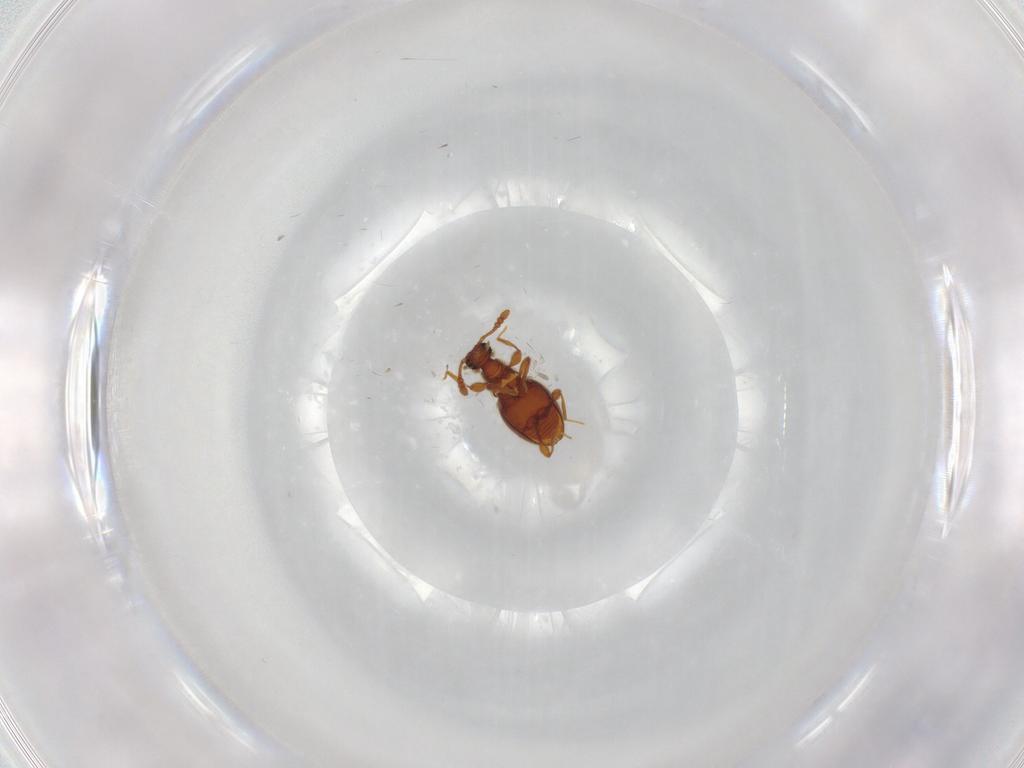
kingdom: Animalia
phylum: Arthropoda
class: Insecta
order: Coleoptera
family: Staphylinidae
